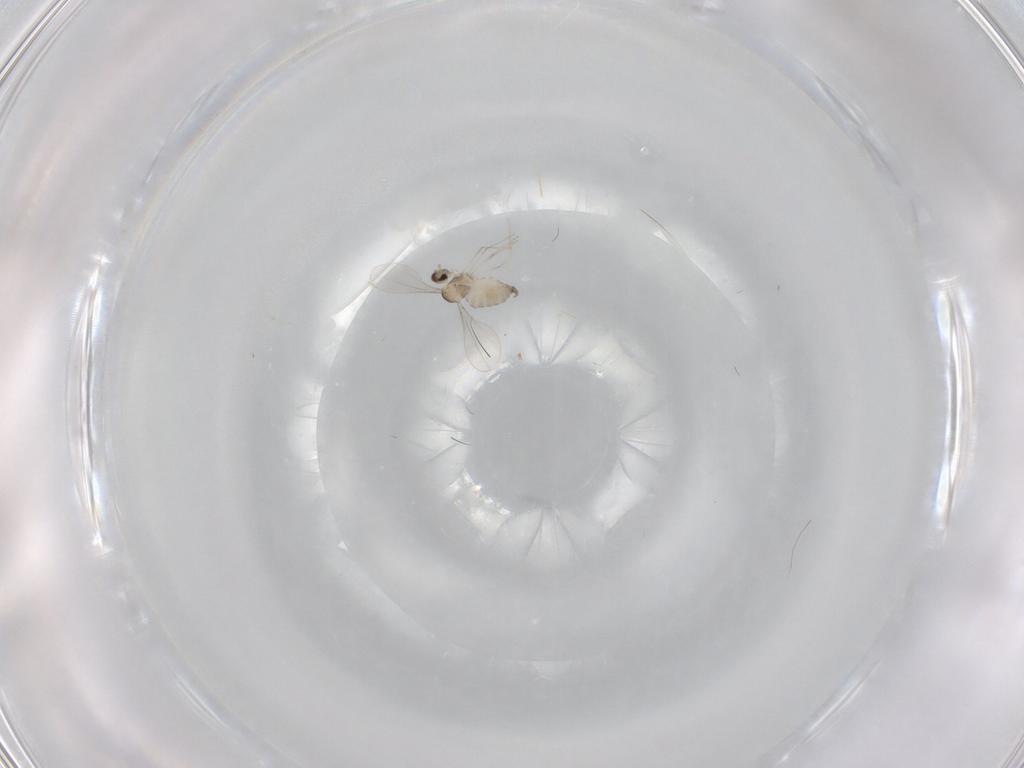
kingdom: Animalia
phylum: Arthropoda
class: Insecta
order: Diptera
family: Cecidomyiidae
